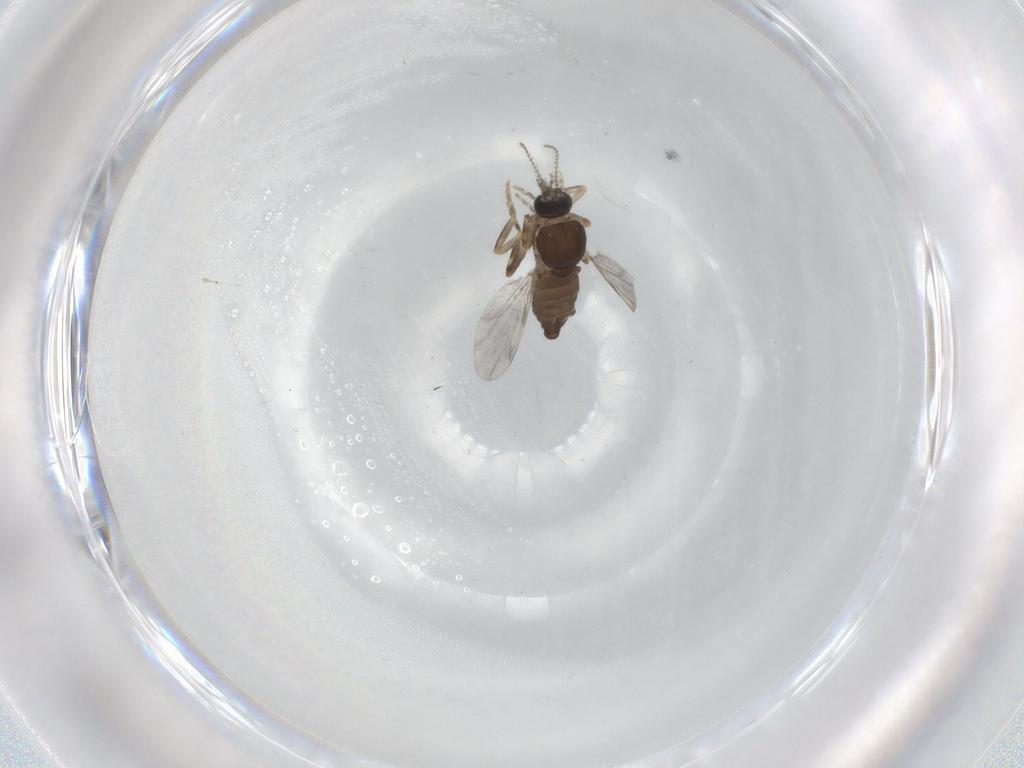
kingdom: Animalia
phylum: Arthropoda
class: Insecta
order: Diptera
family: Ceratopogonidae
